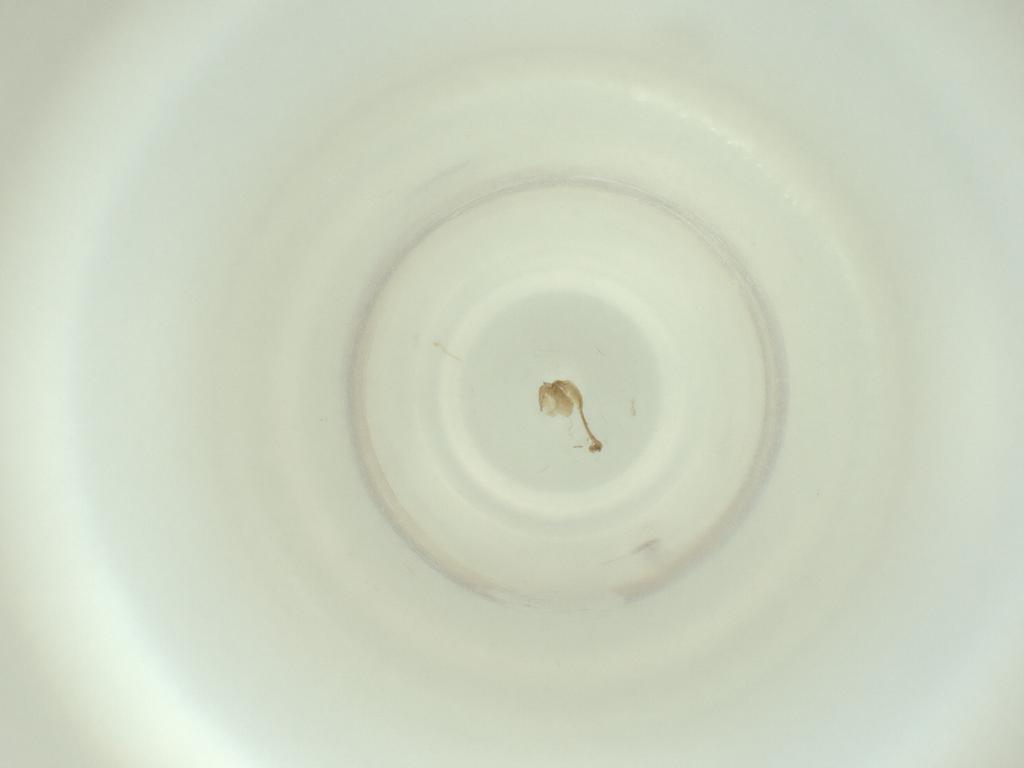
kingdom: Animalia
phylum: Arthropoda
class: Insecta
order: Diptera
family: Cecidomyiidae
